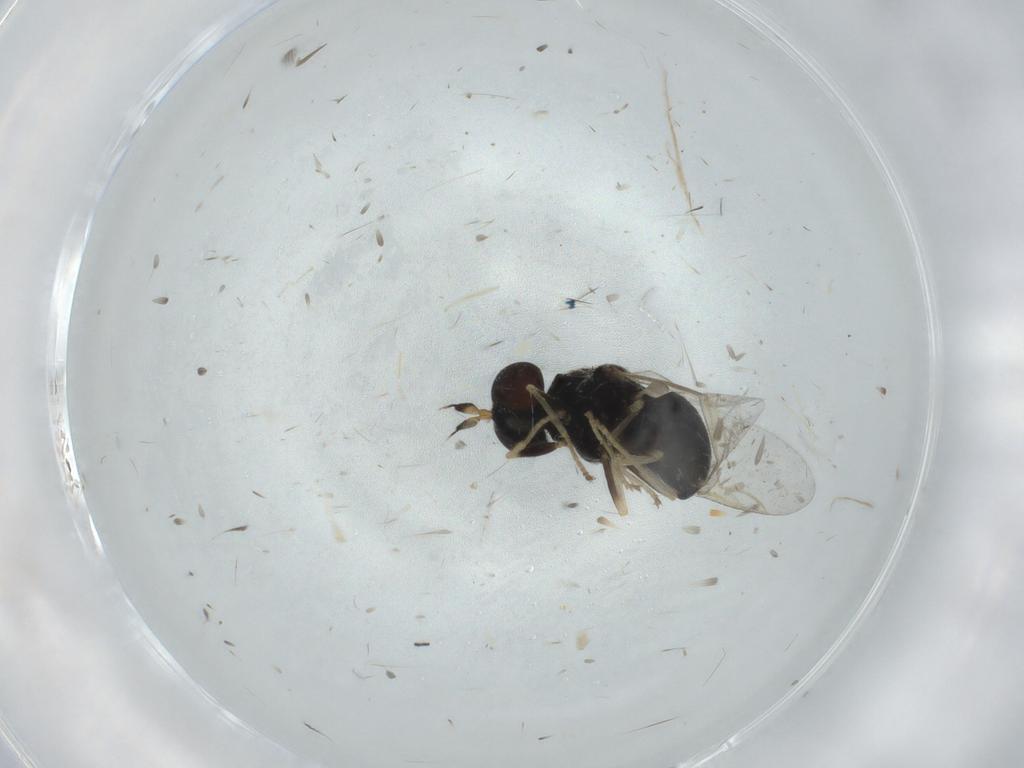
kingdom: Animalia
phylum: Arthropoda
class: Insecta
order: Diptera
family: Stratiomyidae
